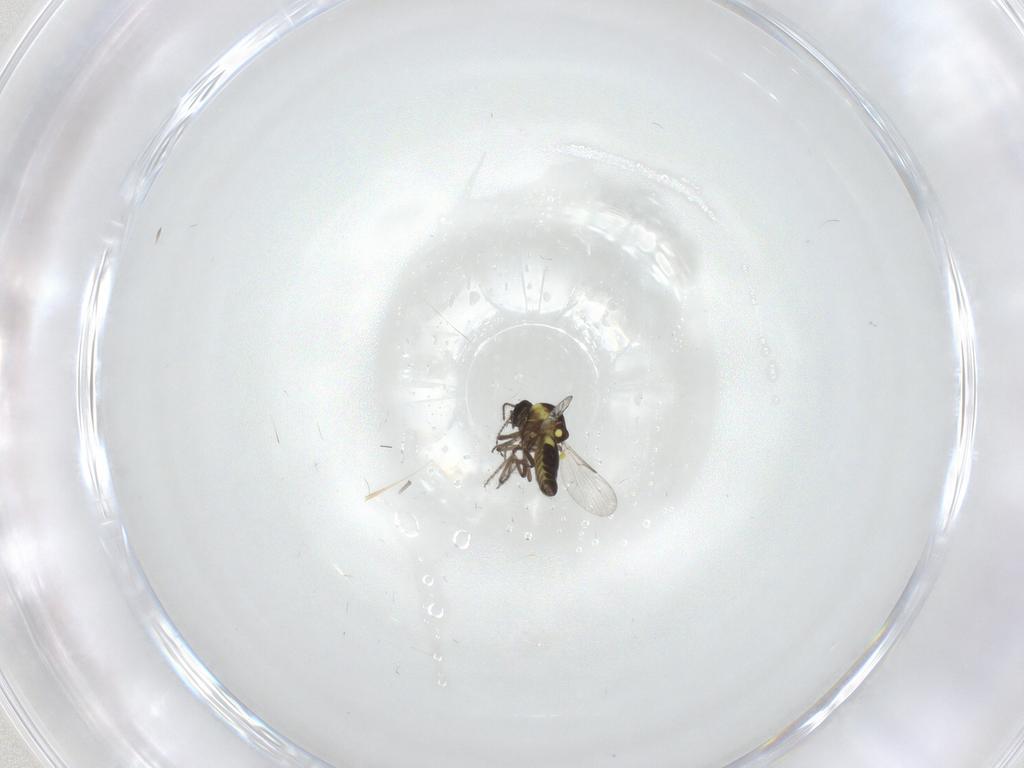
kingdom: Animalia
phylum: Arthropoda
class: Insecta
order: Diptera
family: Ceratopogonidae
